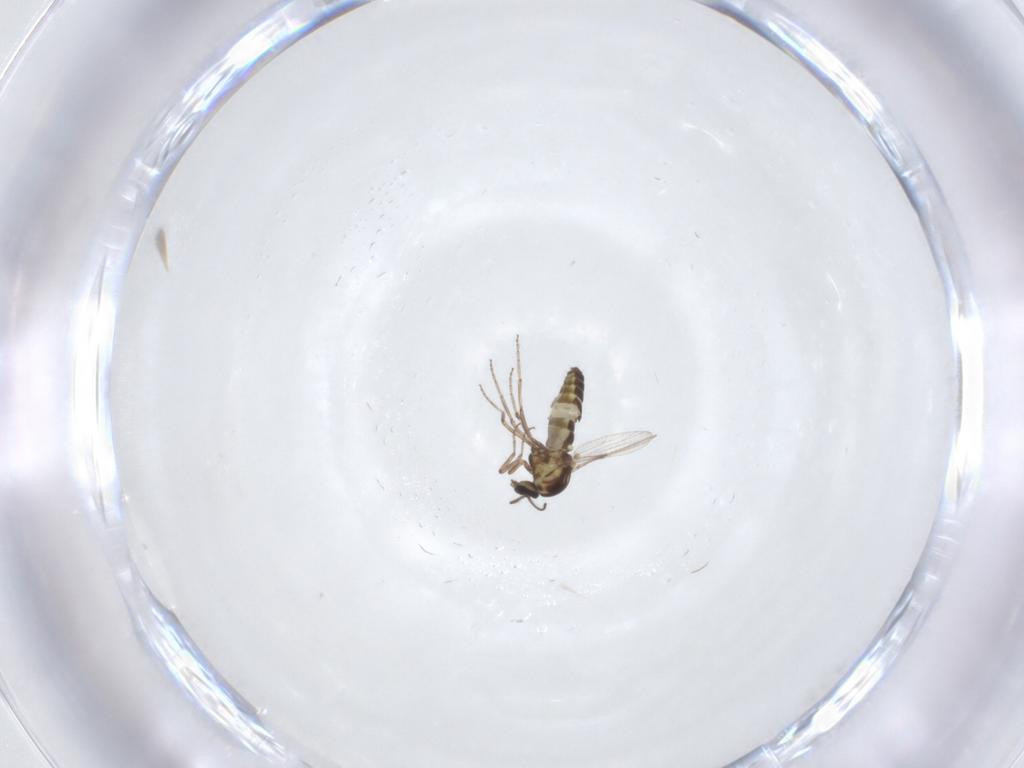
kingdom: Animalia
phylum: Arthropoda
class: Insecta
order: Diptera
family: Ceratopogonidae
